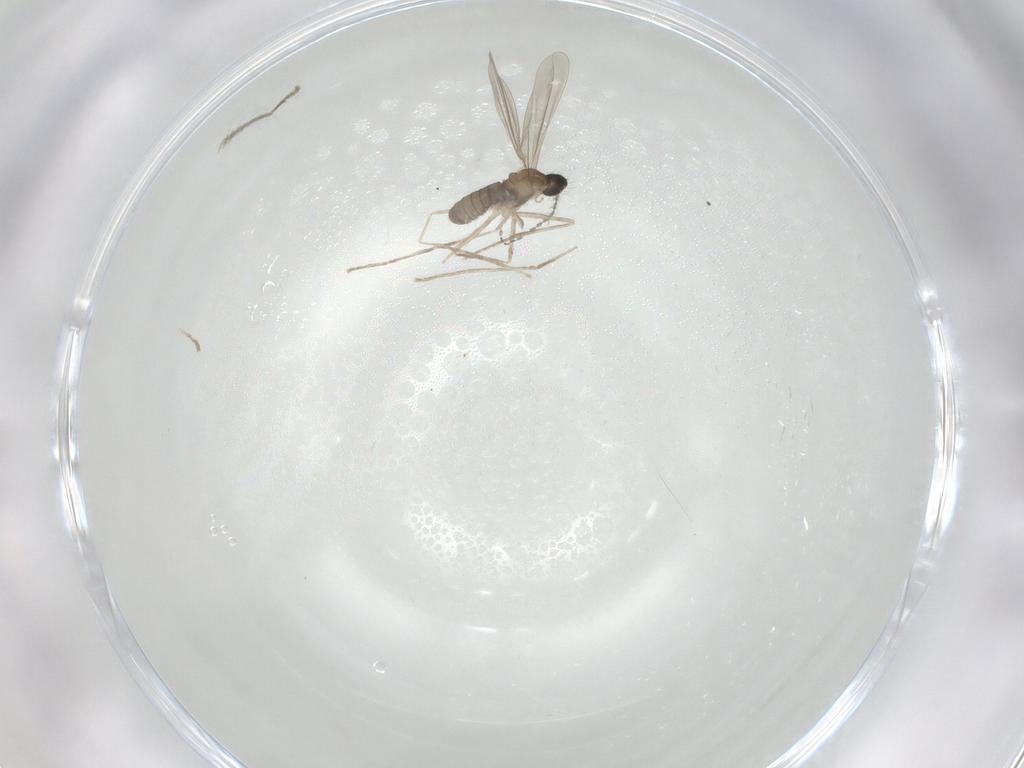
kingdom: Animalia
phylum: Arthropoda
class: Insecta
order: Diptera
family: Cecidomyiidae
